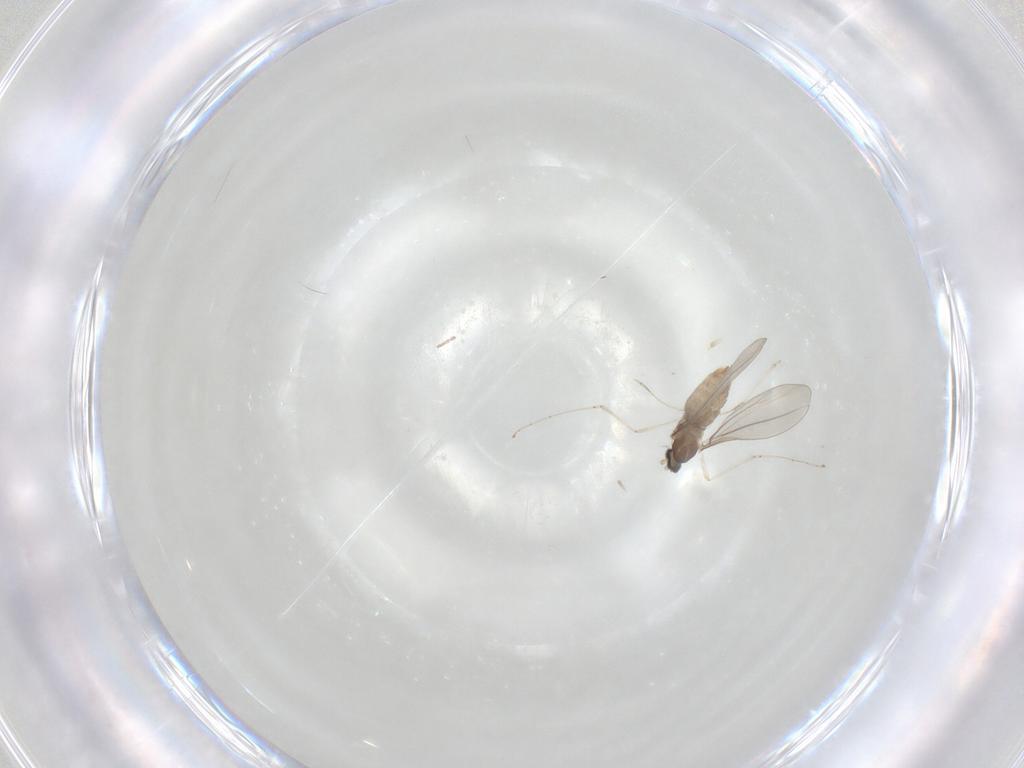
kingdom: Animalia
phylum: Arthropoda
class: Insecta
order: Diptera
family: Cecidomyiidae
